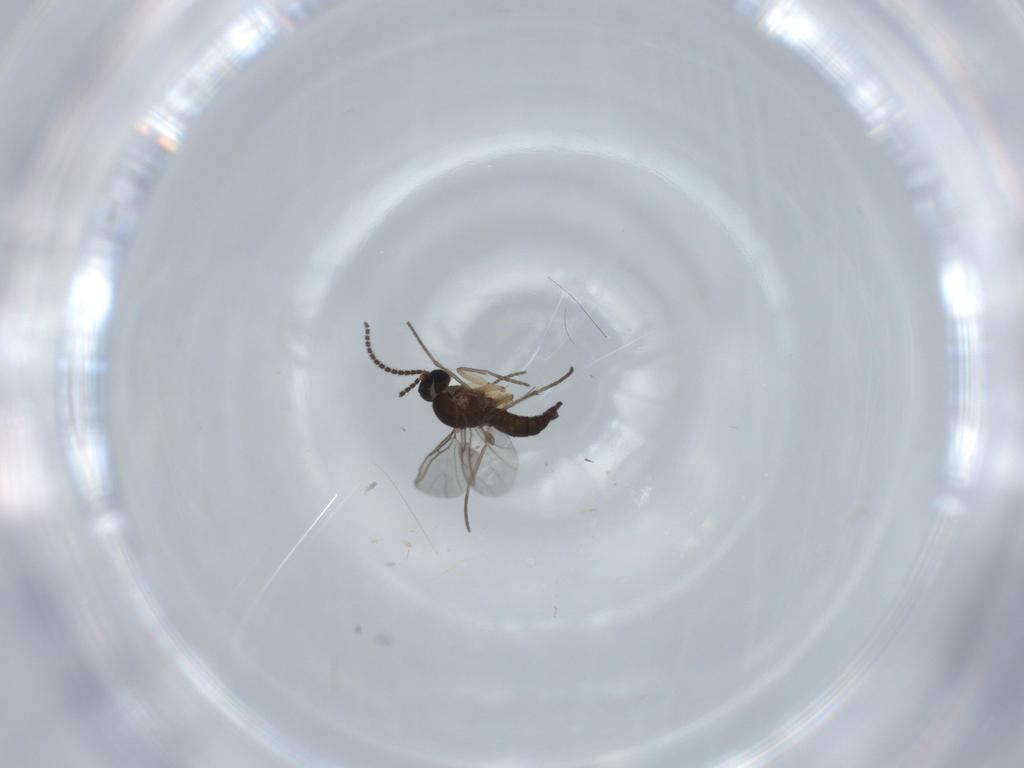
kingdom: Animalia
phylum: Arthropoda
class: Insecta
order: Diptera
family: Sciaridae
